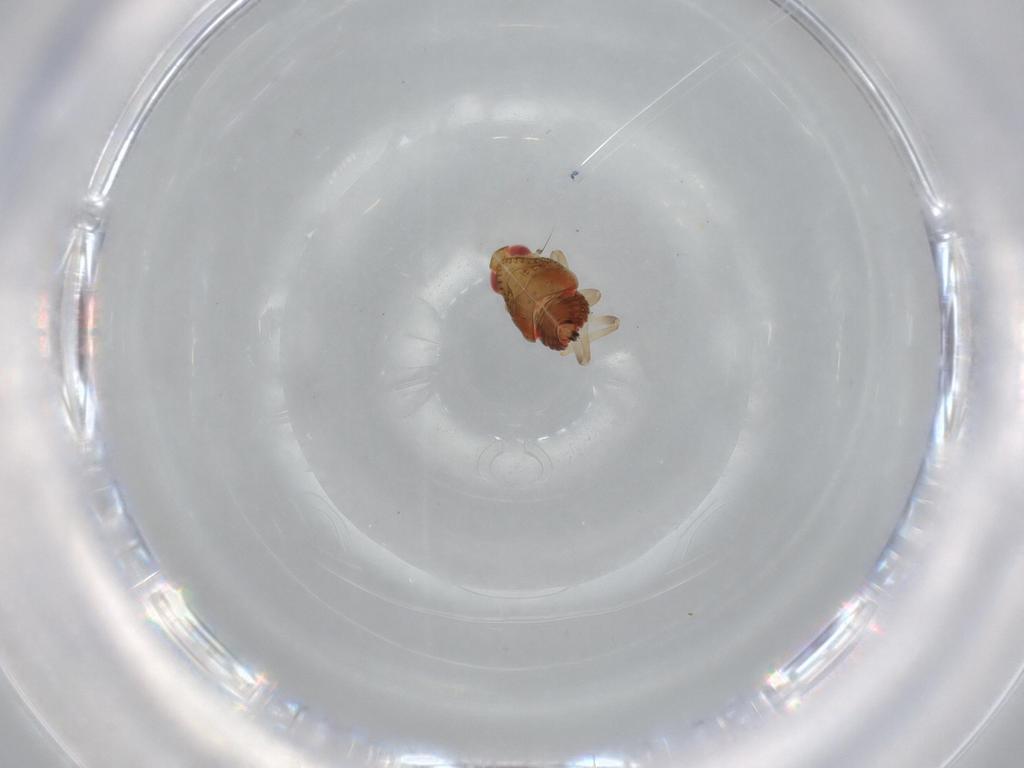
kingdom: Animalia
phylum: Arthropoda
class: Insecta
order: Hemiptera
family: Issidae
